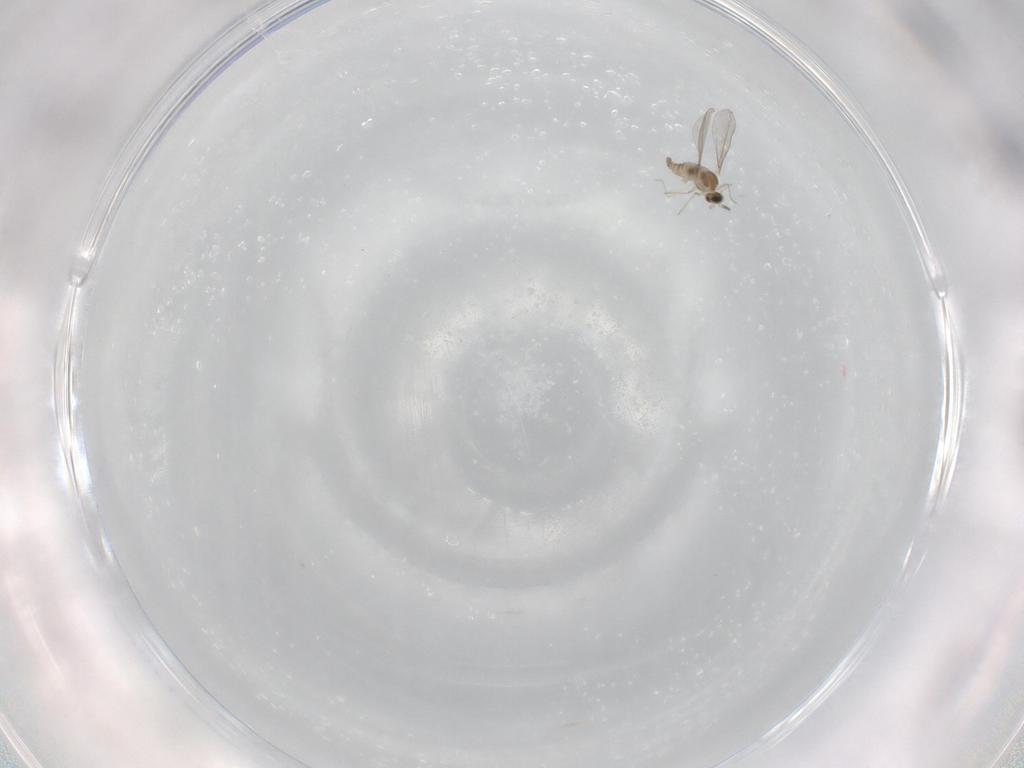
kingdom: Animalia
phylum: Arthropoda
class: Insecta
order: Diptera
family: Cecidomyiidae
